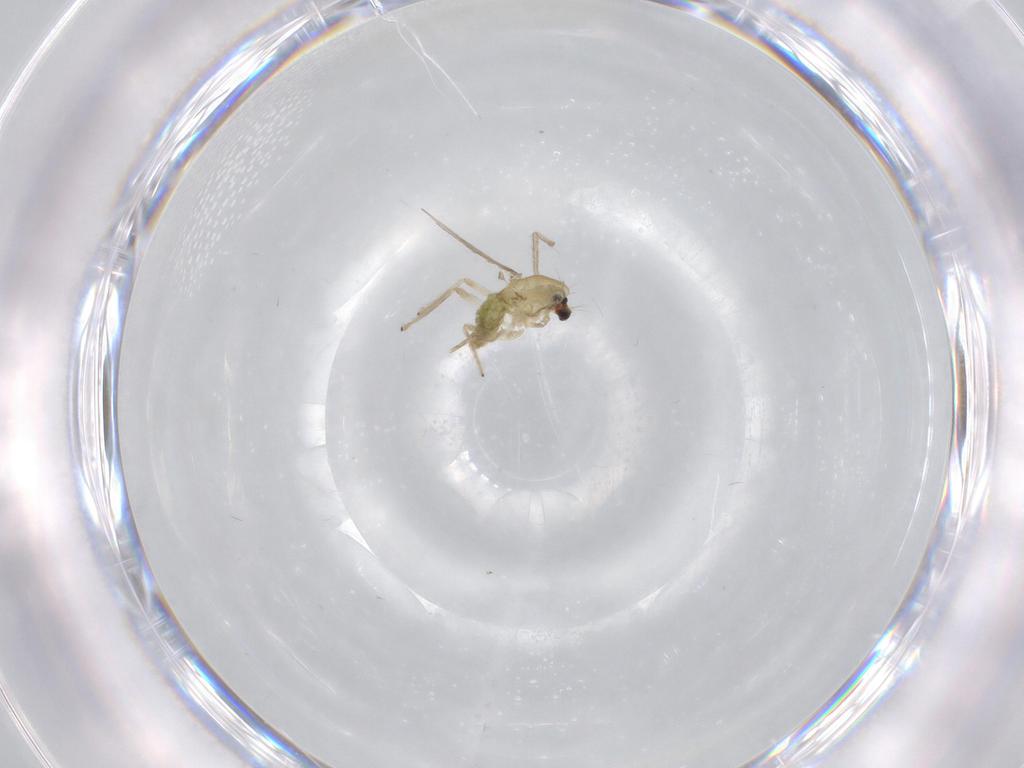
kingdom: Animalia
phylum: Arthropoda
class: Insecta
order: Diptera
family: Chironomidae
